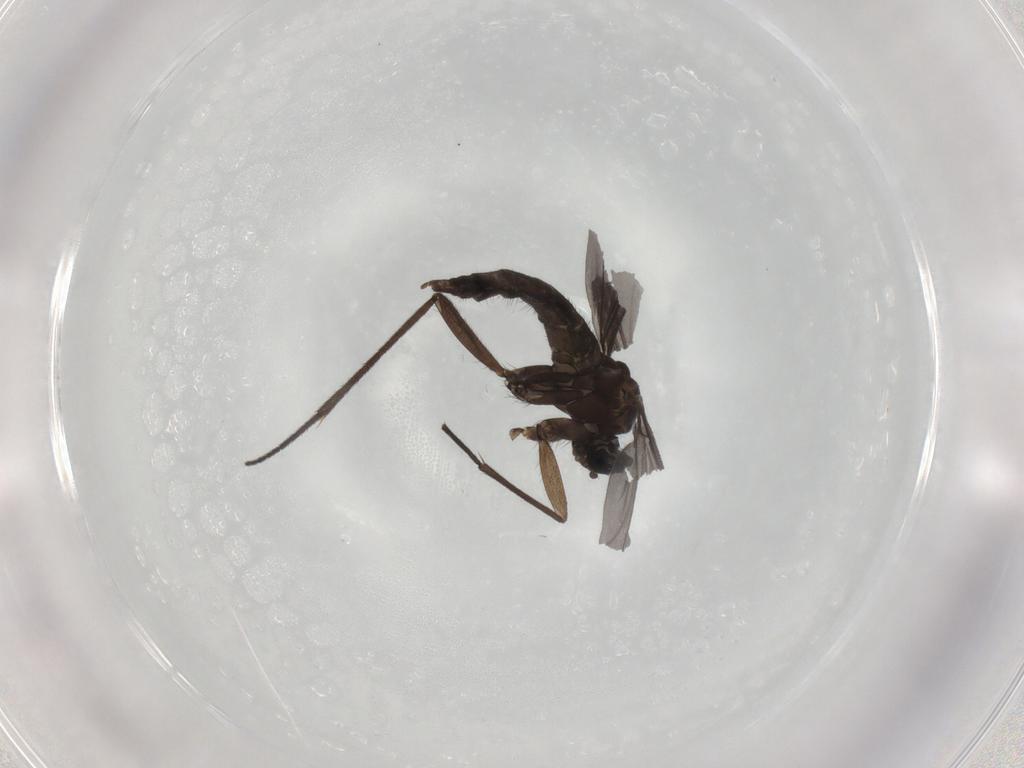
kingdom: Animalia
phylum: Arthropoda
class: Insecta
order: Diptera
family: Sciaridae
